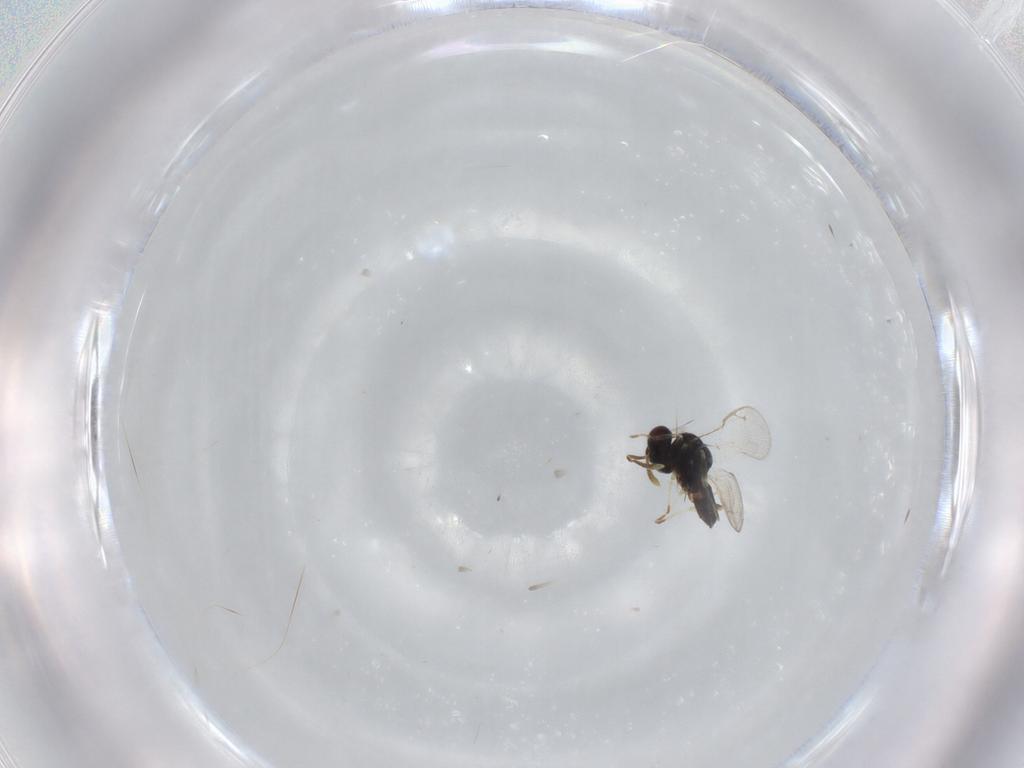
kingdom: Animalia
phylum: Arthropoda
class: Insecta
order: Hymenoptera
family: Pteromalidae
